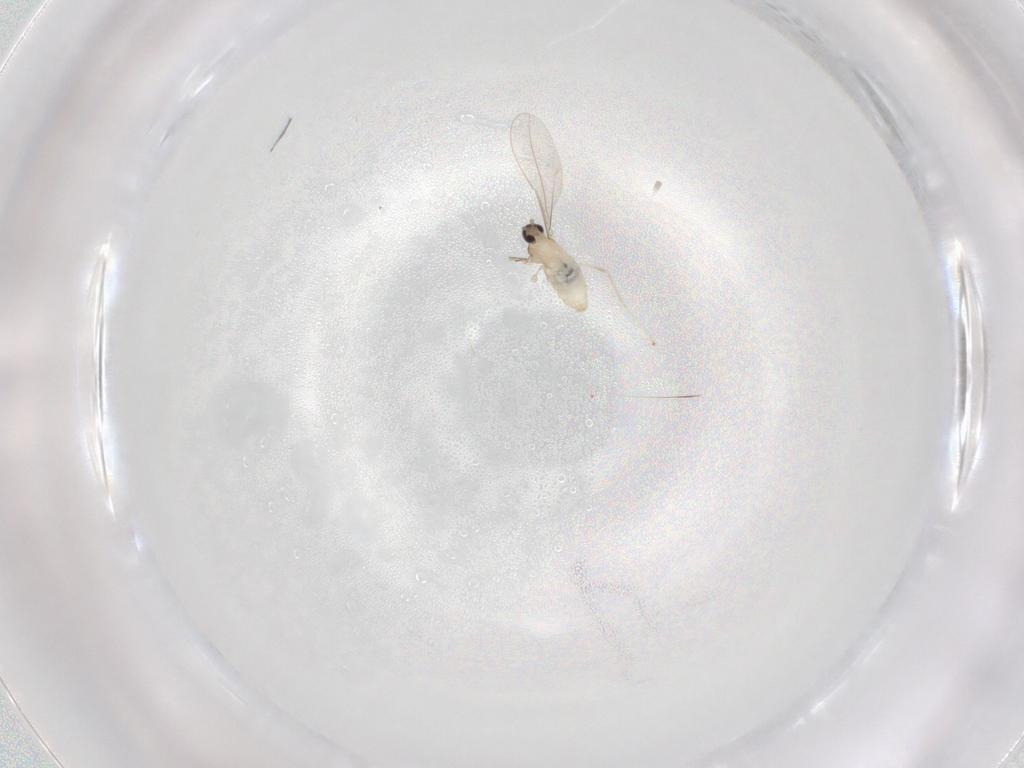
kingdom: Animalia
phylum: Arthropoda
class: Insecta
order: Diptera
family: Cecidomyiidae
